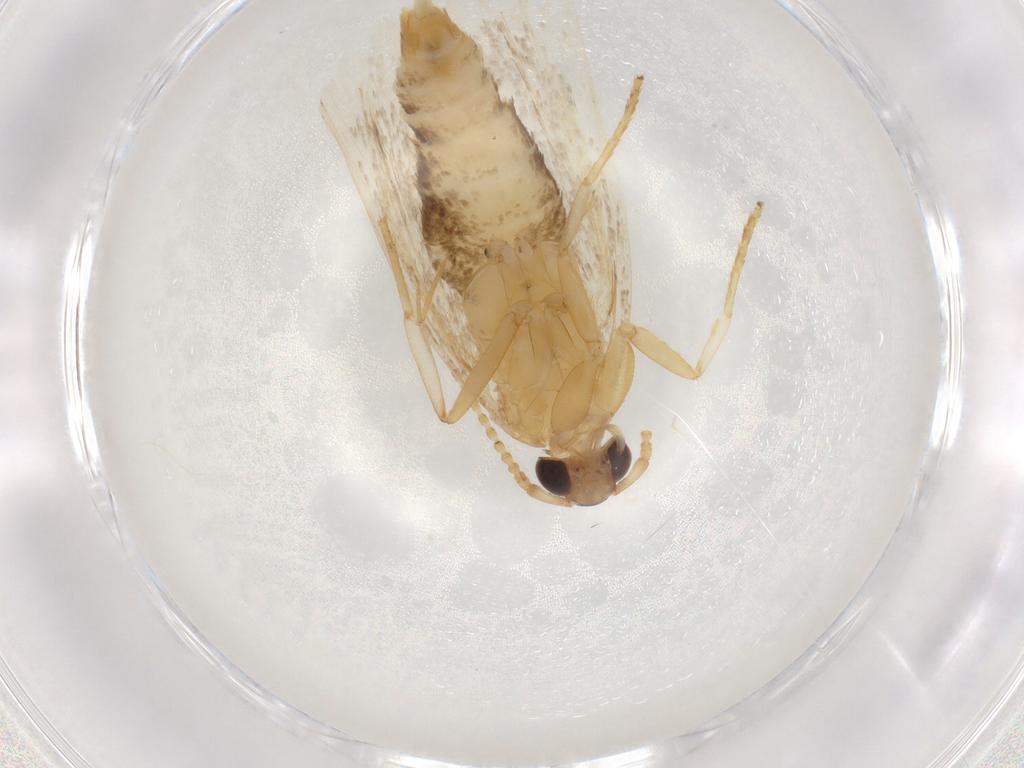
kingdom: Animalia
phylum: Arthropoda
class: Insecta
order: Lepidoptera
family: Lecithoceridae
